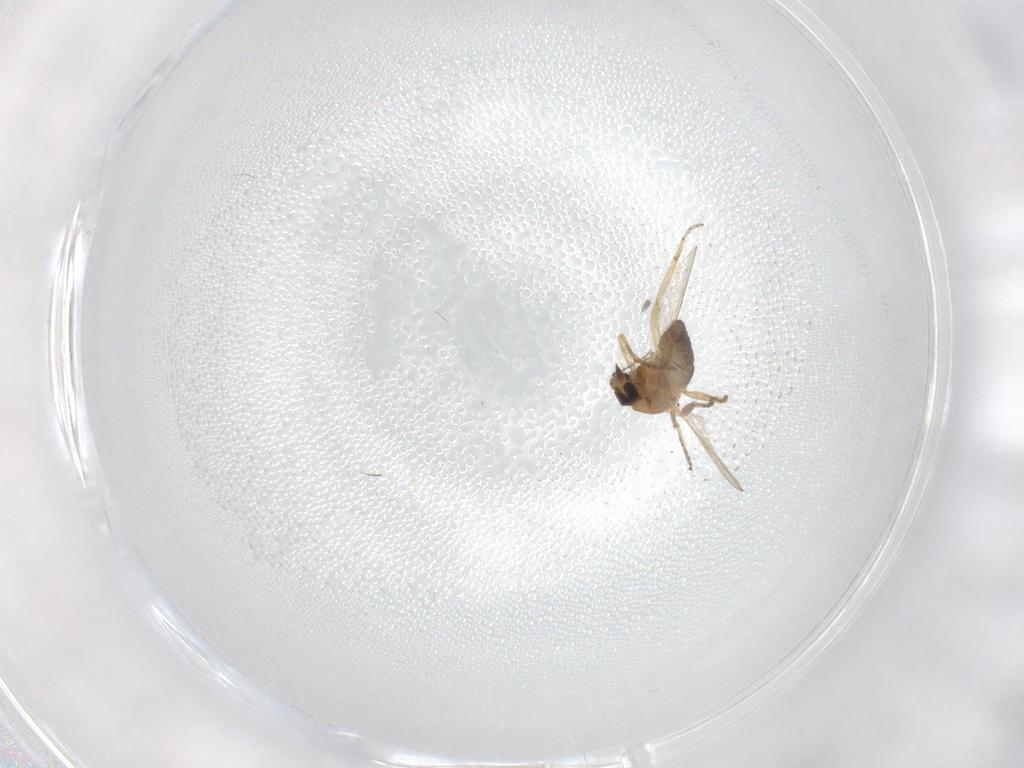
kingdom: Animalia
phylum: Arthropoda
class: Insecta
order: Diptera
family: Ceratopogonidae
